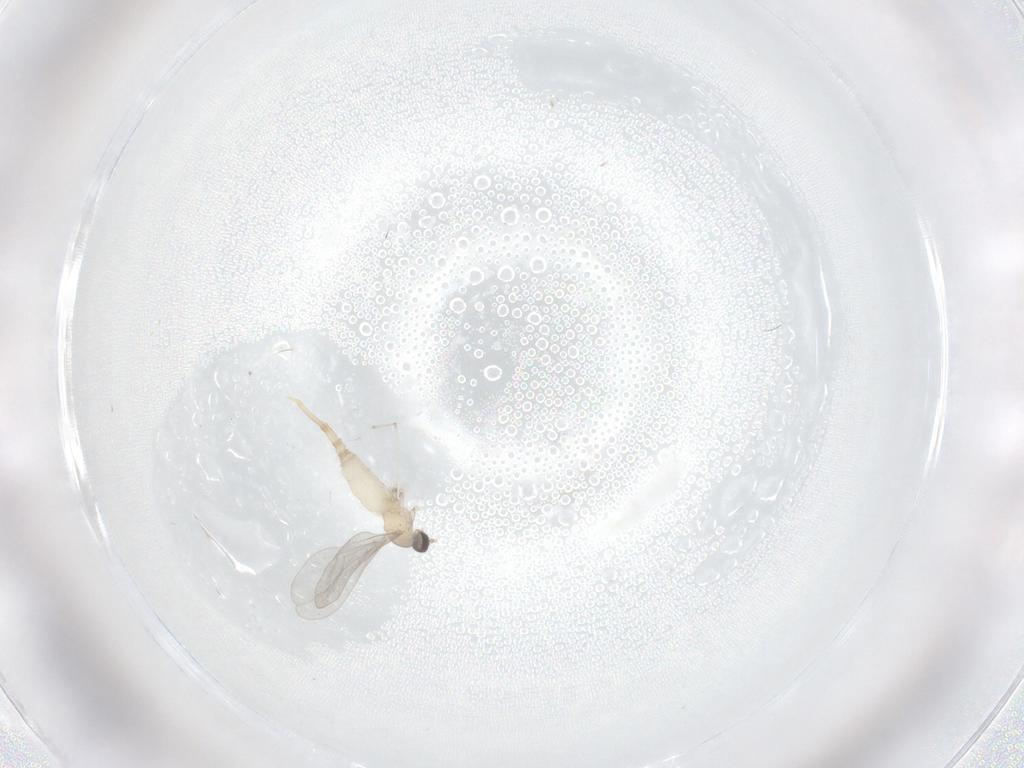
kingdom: Animalia
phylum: Arthropoda
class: Insecta
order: Diptera
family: Cecidomyiidae
